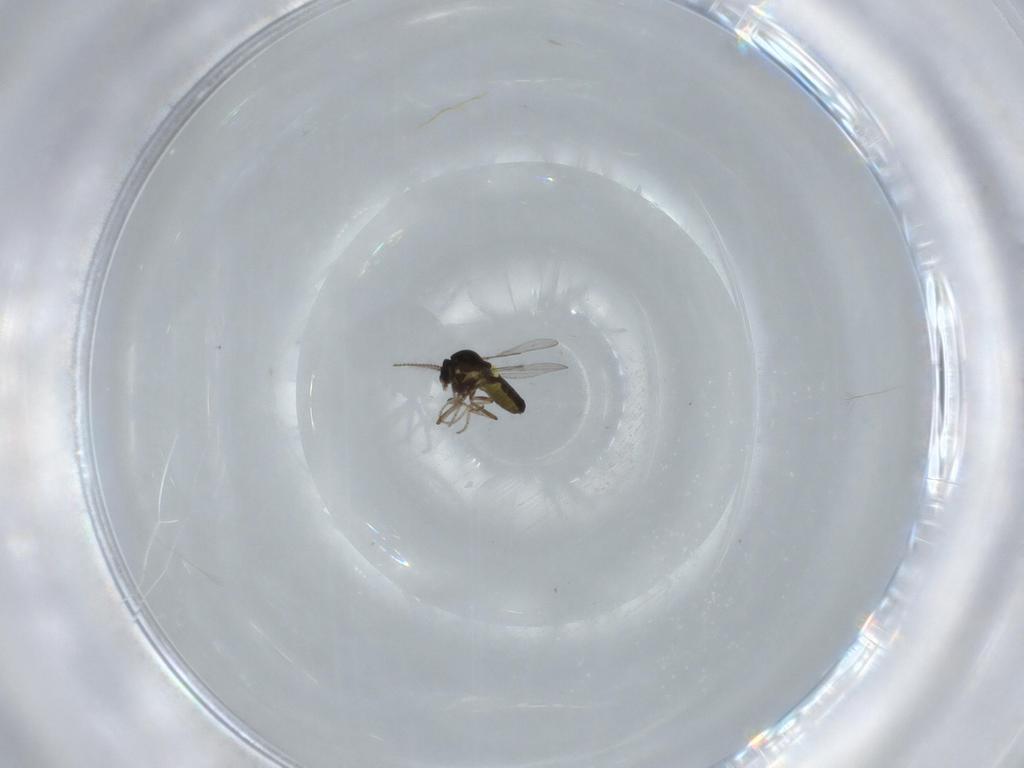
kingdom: Animalia
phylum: Arthropoda
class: Insecta
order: Diptera
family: Ceratopogonidae
